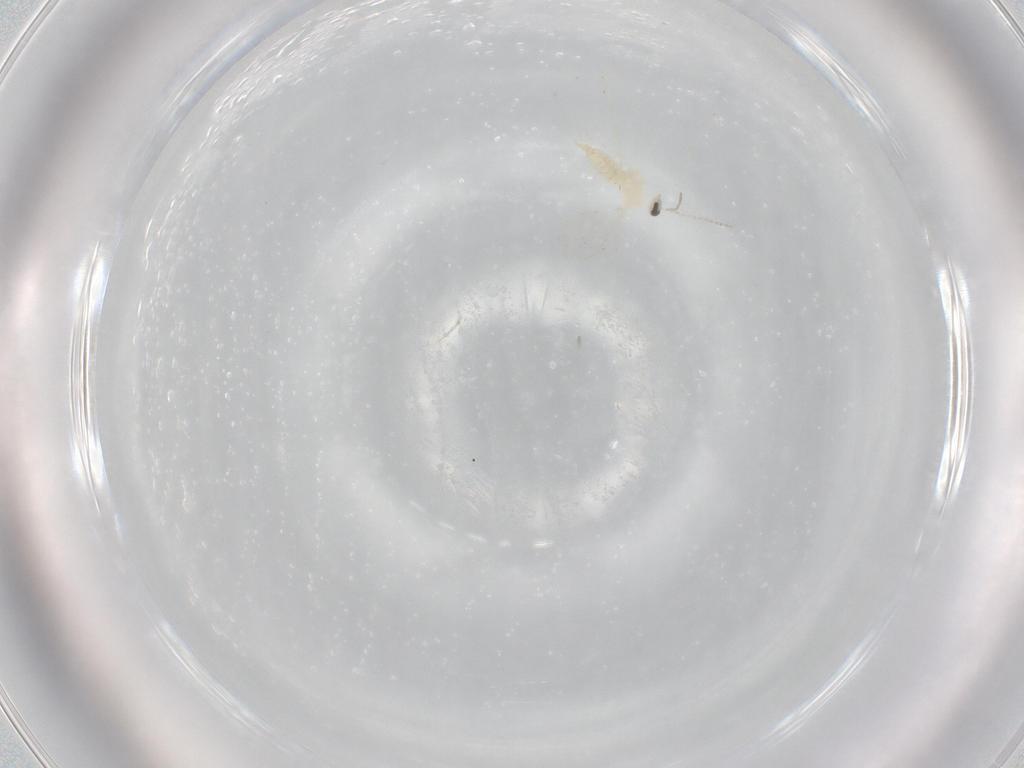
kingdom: Animalia
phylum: Arthropoda
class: Insecta
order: Diptera
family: Cecidomyiidae
